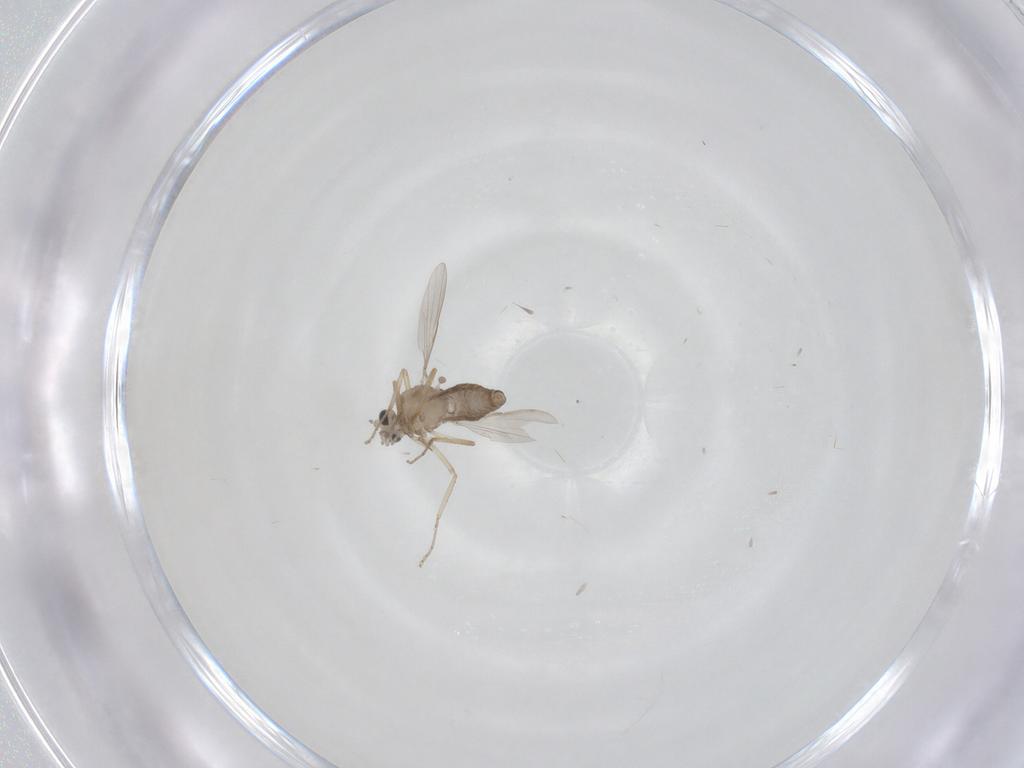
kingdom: Animalia
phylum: Arthropoda
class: Insecta
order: Diptera
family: Ceratopogonidae
